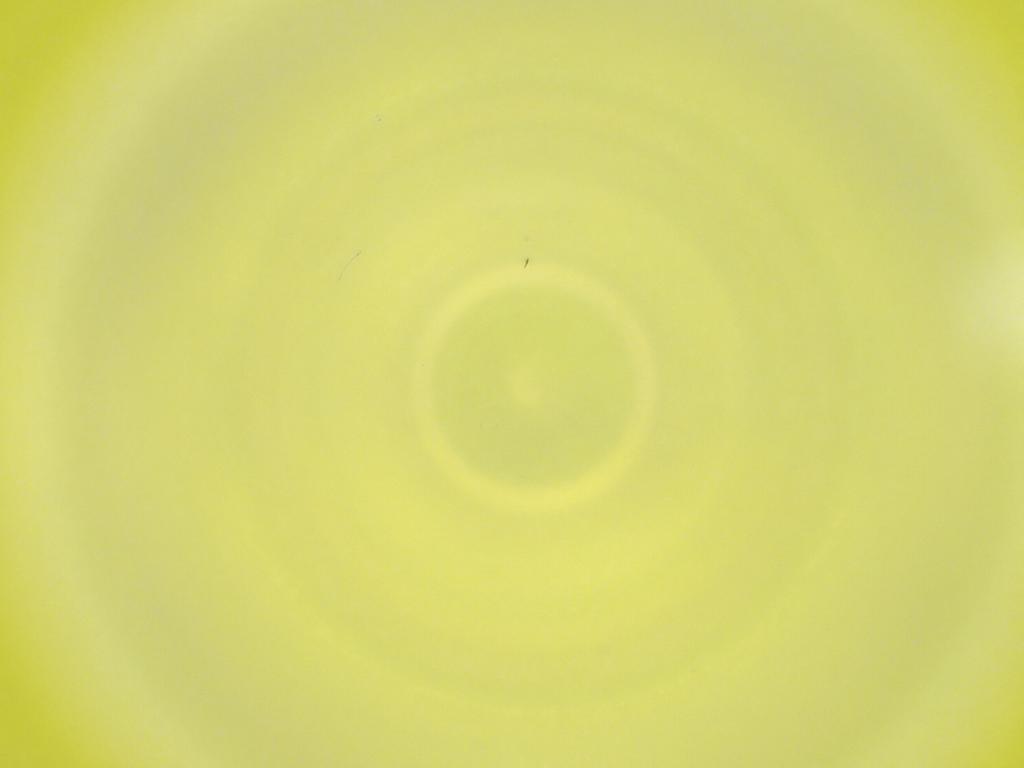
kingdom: Animalia
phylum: Arthropoda
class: Insecta
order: Diptera
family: Cecidomyiidae
